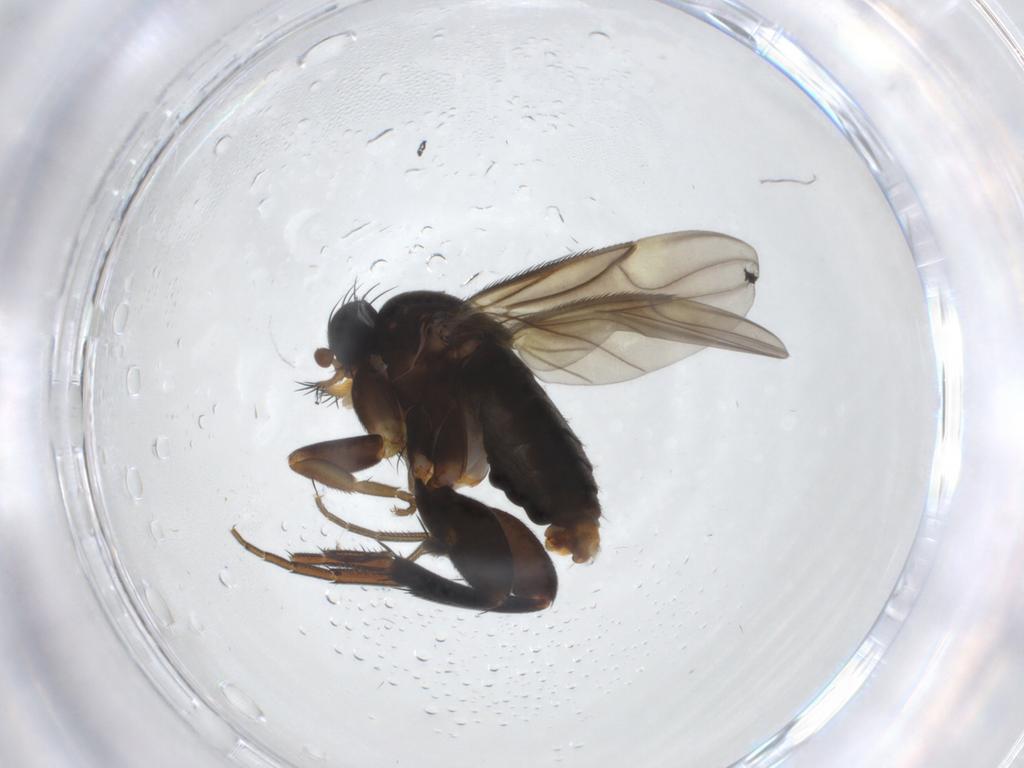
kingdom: Animalia
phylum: Arthropoda
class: Insecta
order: Diptera
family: Phoridae
